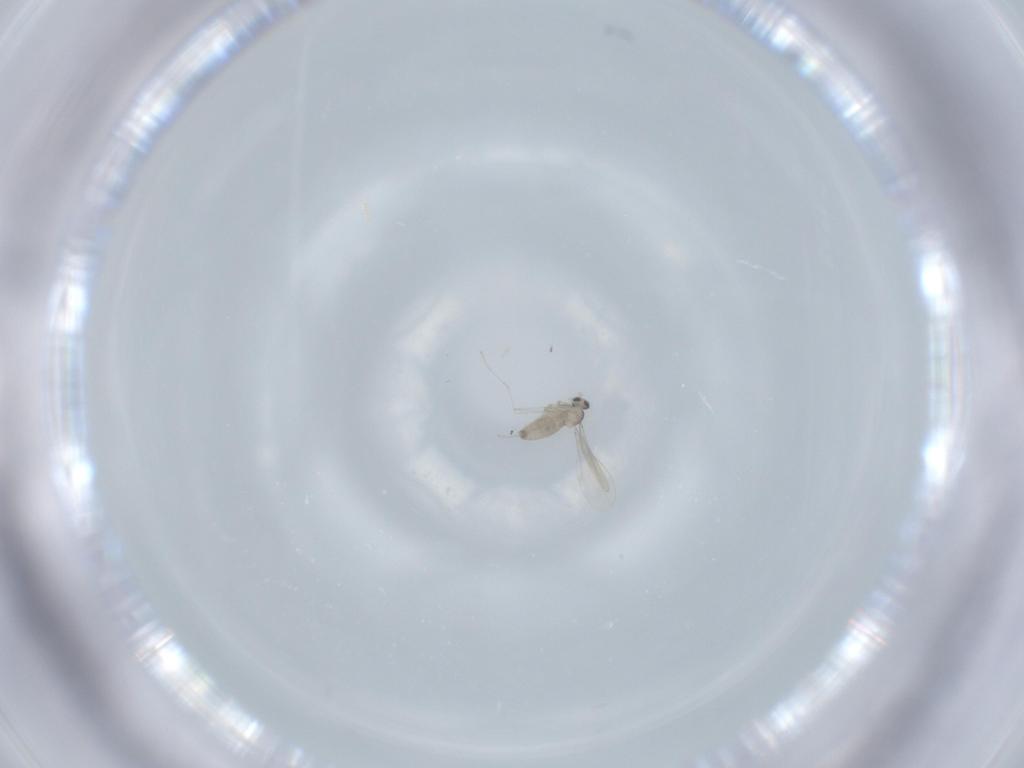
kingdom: Animalia
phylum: Arthropoda
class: Insecta
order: Diptera
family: Cecidomyiidae
